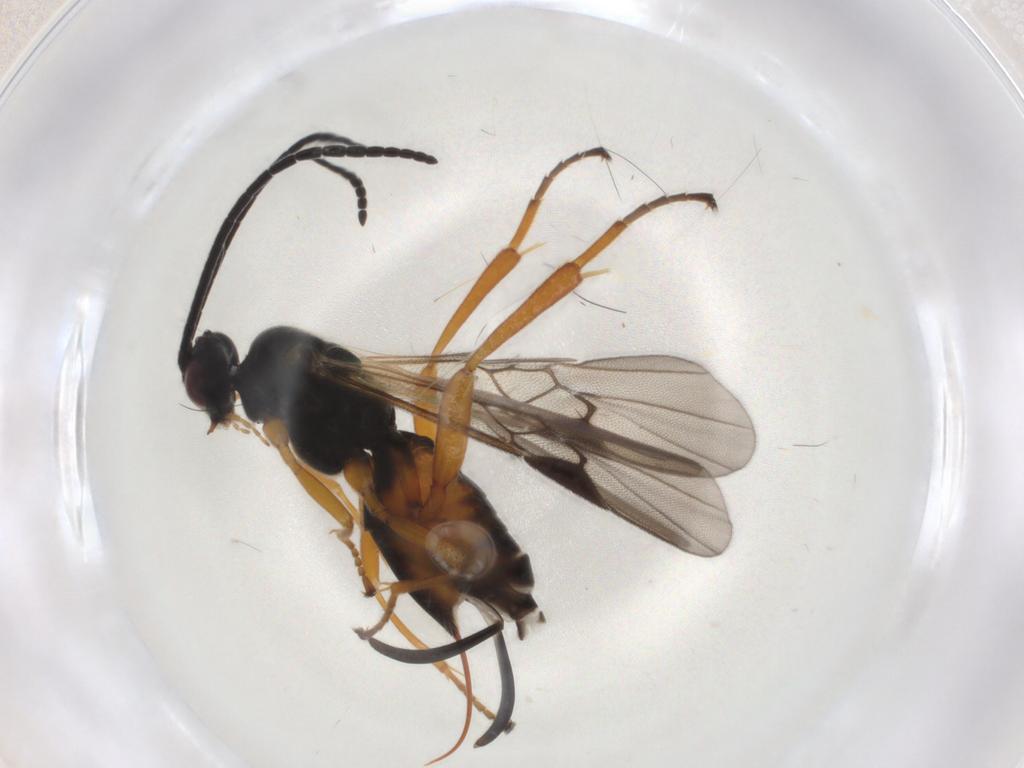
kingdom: Animalia
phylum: Arthropoda
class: Insecta
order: Lepidoptera
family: Tortricidae
